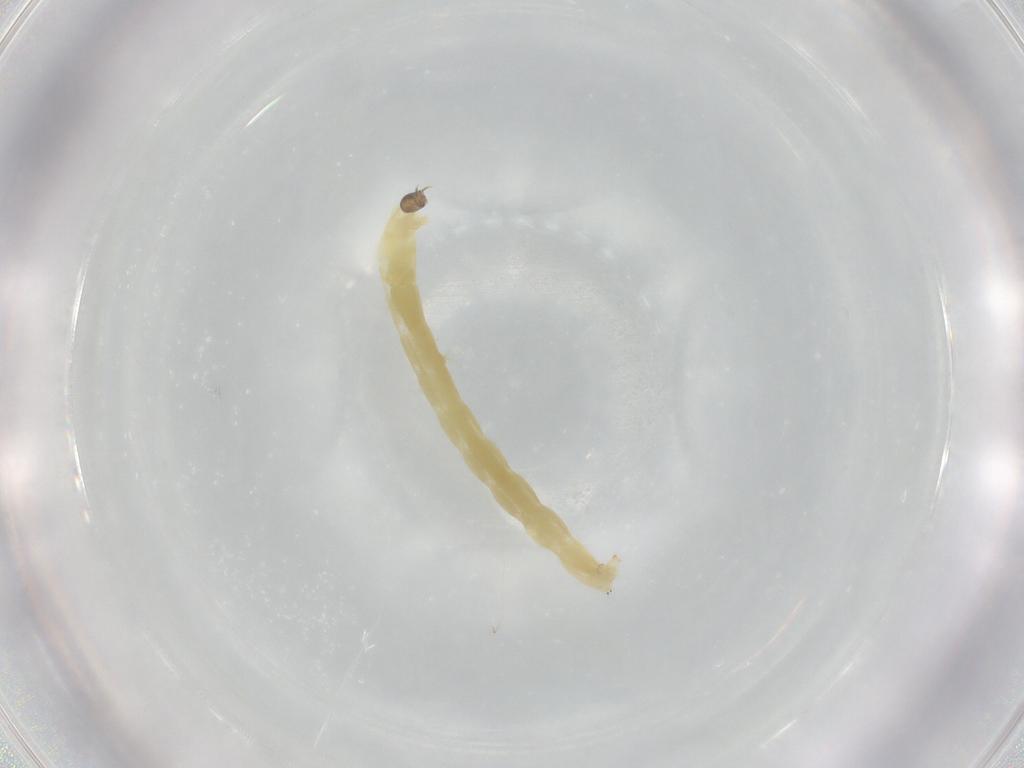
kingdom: Animalia
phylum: Arthropoda
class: Insecta
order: Diptera
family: Chironomidae
